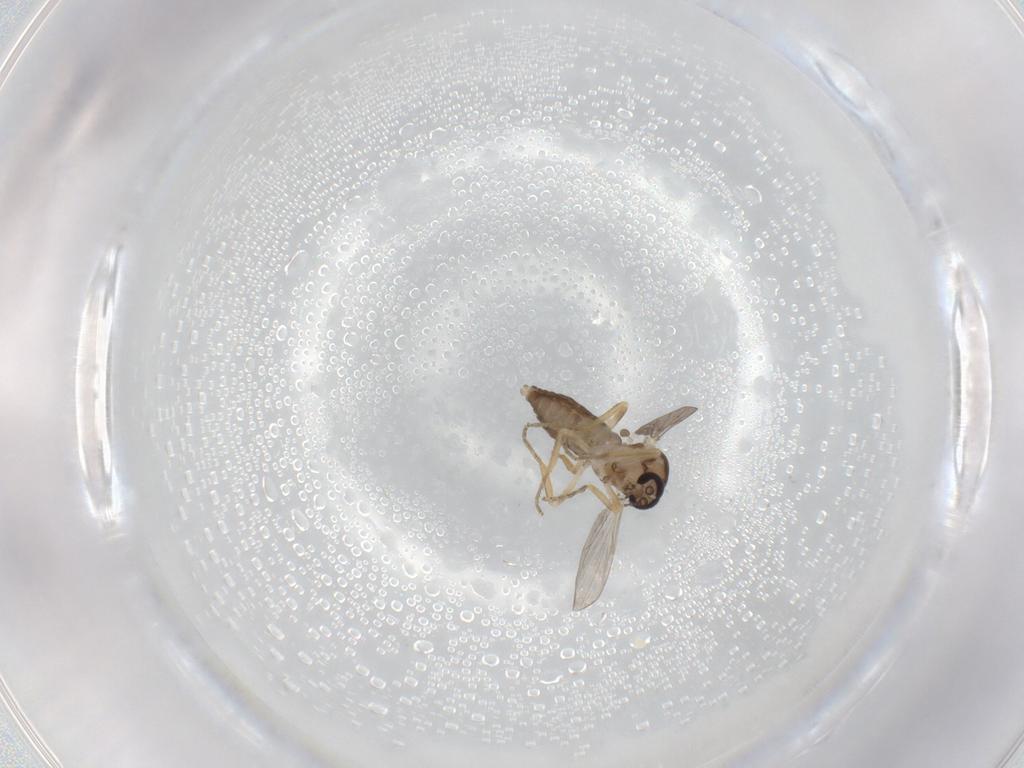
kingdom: Animalia
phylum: Arthropoda
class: Insecta
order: Diptera
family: Ceratopogonidae
